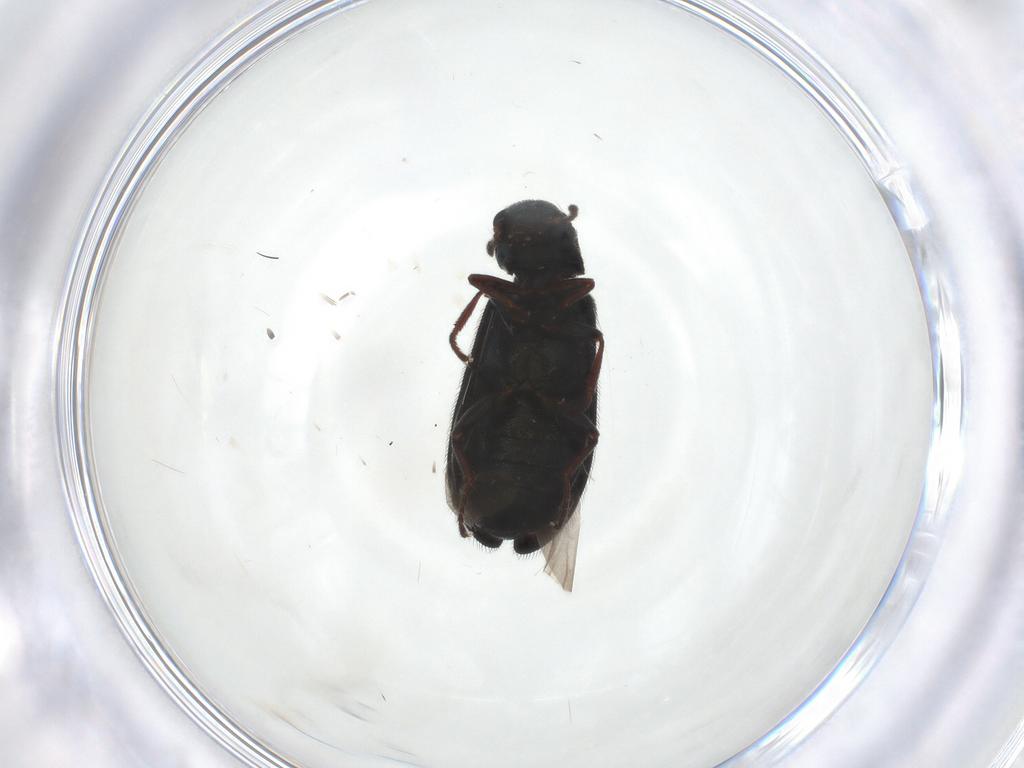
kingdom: Animalia
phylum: Arthropoda
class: Insecta
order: Coleoptera
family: Melyridae
